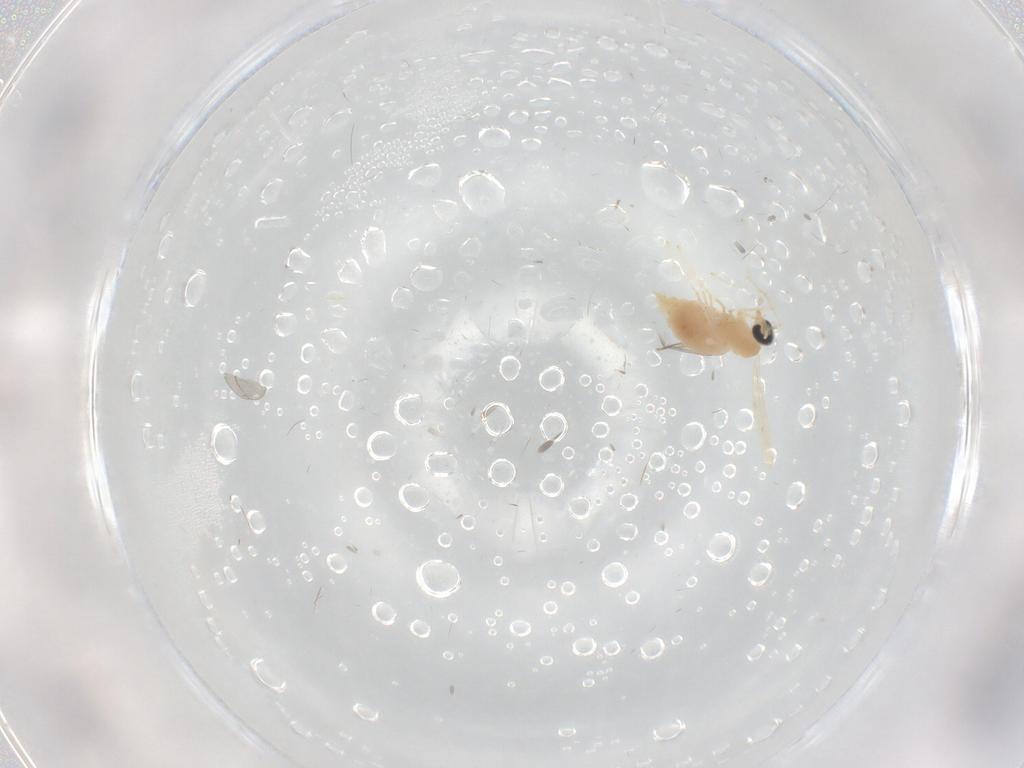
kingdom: Animalia
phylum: Arthropoda
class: Insecta
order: Diptera
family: Cecidomyiidae
